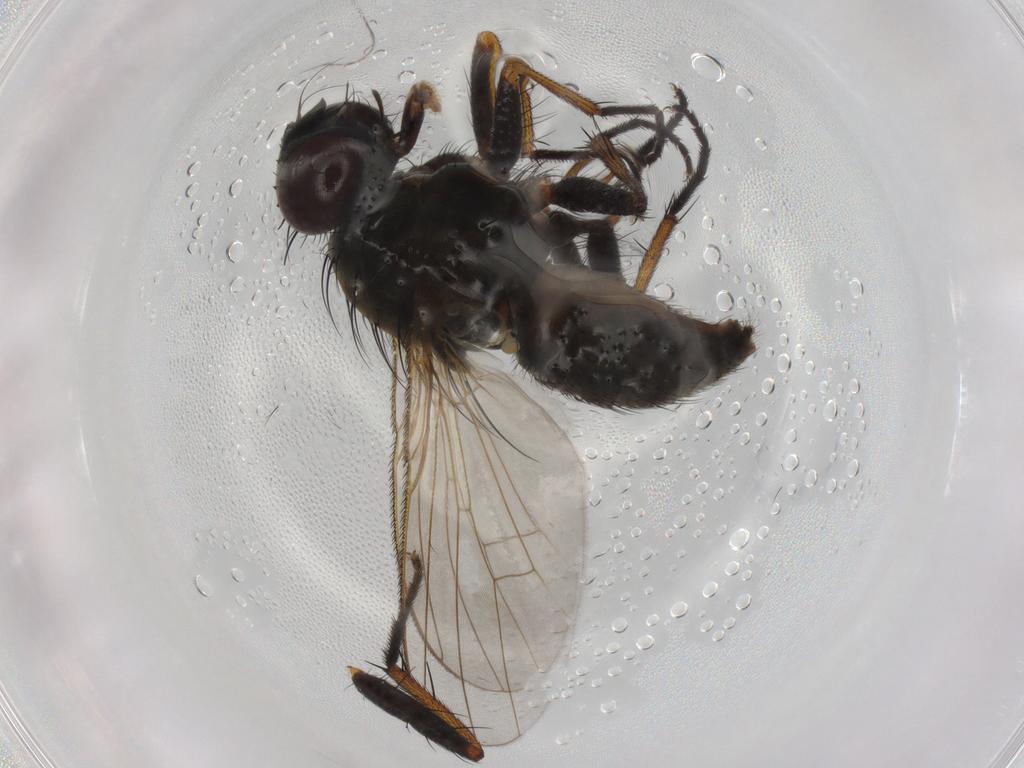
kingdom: Animalia
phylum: Arthropoda
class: Insecta
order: Diptera
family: Muscidae
